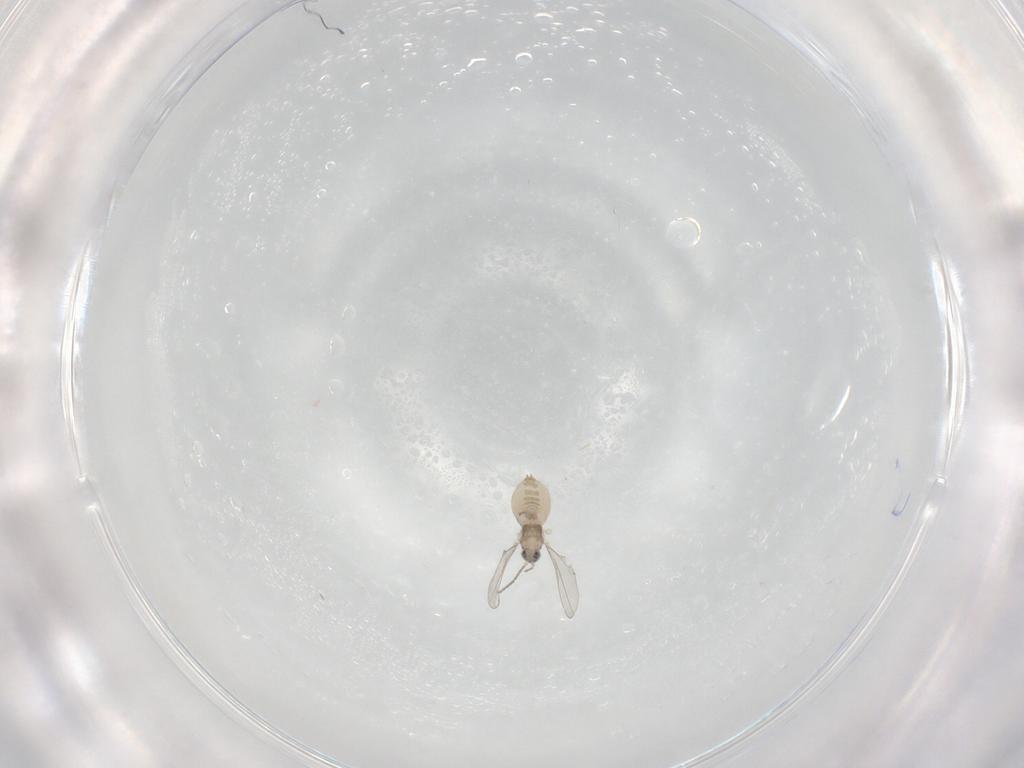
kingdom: Animalia
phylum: Arthropoda
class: Insecta
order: Diptera
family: Cecidomyiidae
